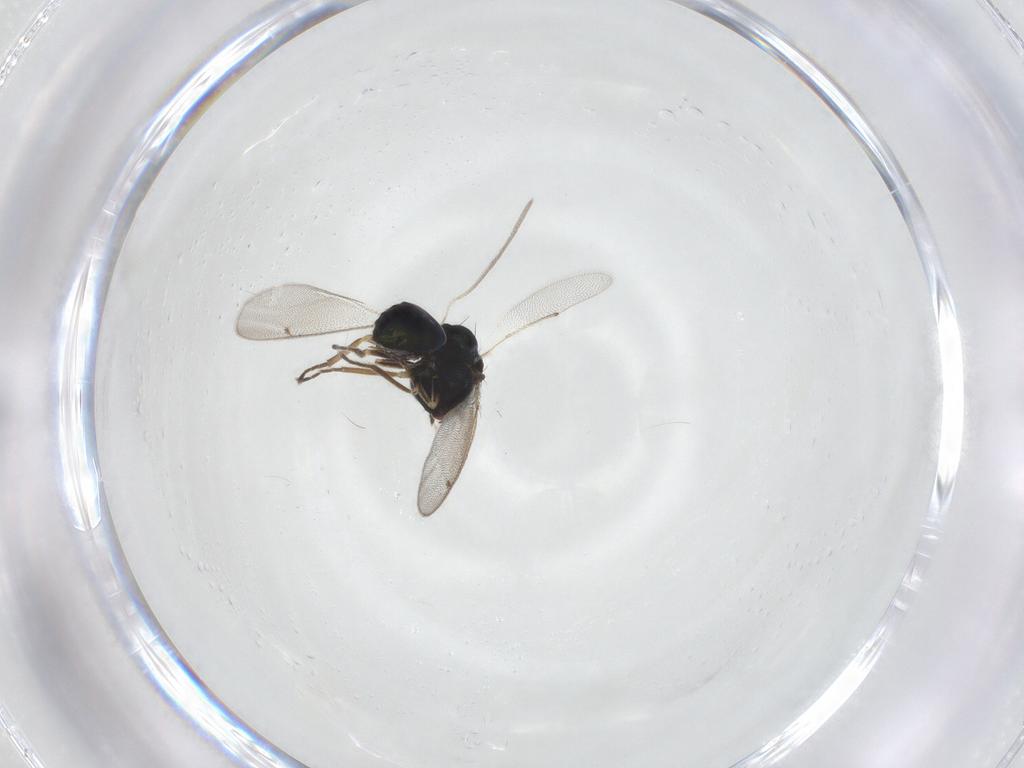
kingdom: Animalia
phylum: Arthropoda
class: Insecta
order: Hymenoptera
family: Eulophidae
